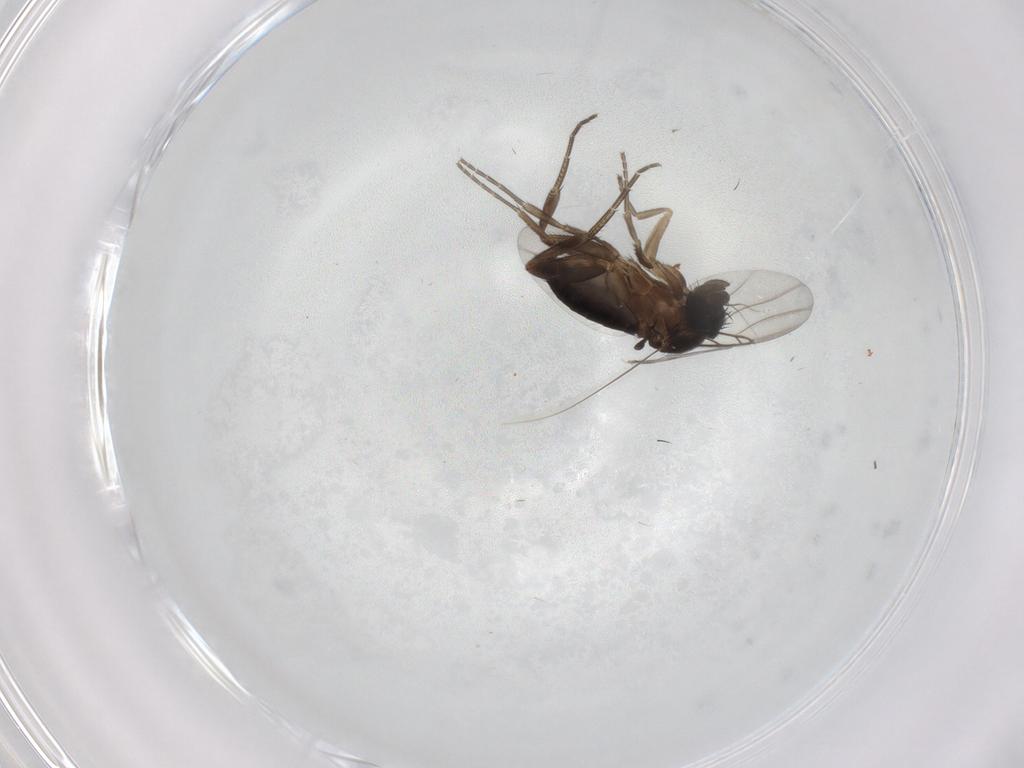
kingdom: Animalia
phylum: Arthropoda
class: Insecta
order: Diptera
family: Phoridae
